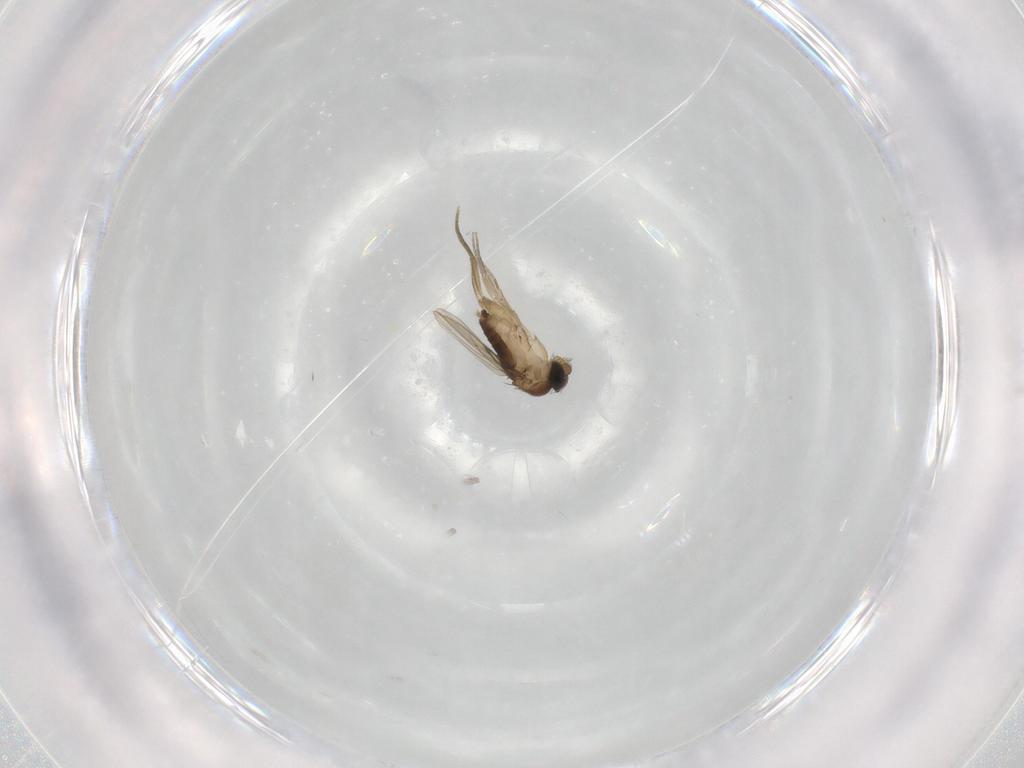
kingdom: Animalia
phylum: Arthropoda
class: Insecta
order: Diptera
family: Phoridae
